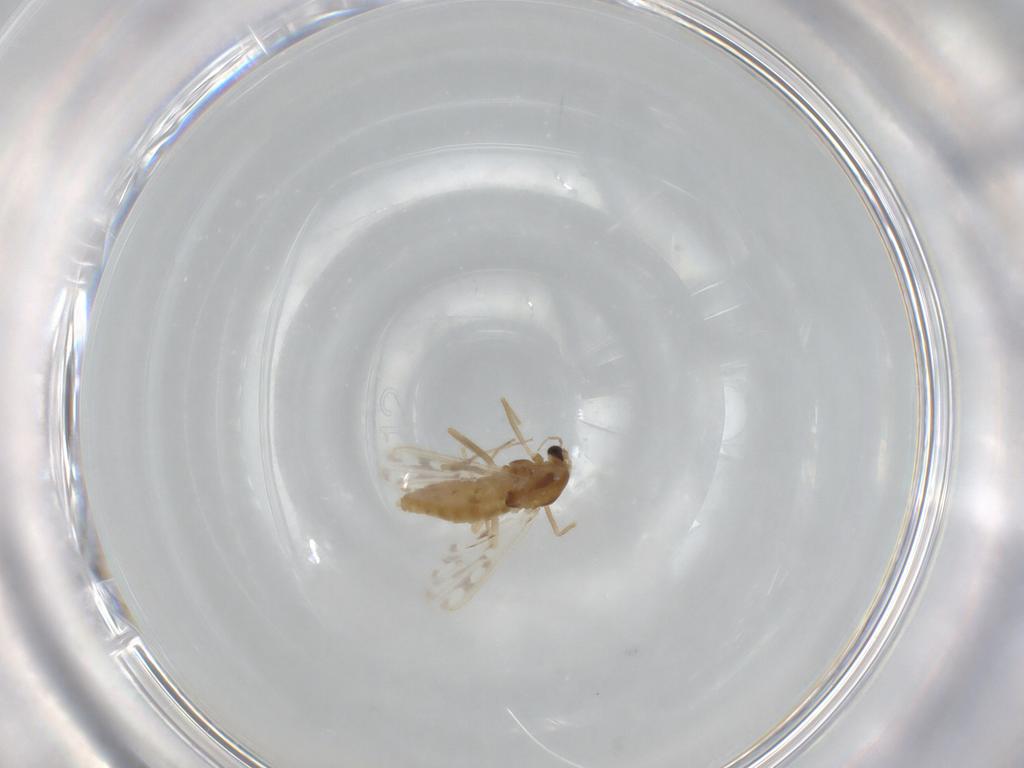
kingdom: Animalia
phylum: Arthropoda
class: Insecta
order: Diptera
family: Chironomidae
